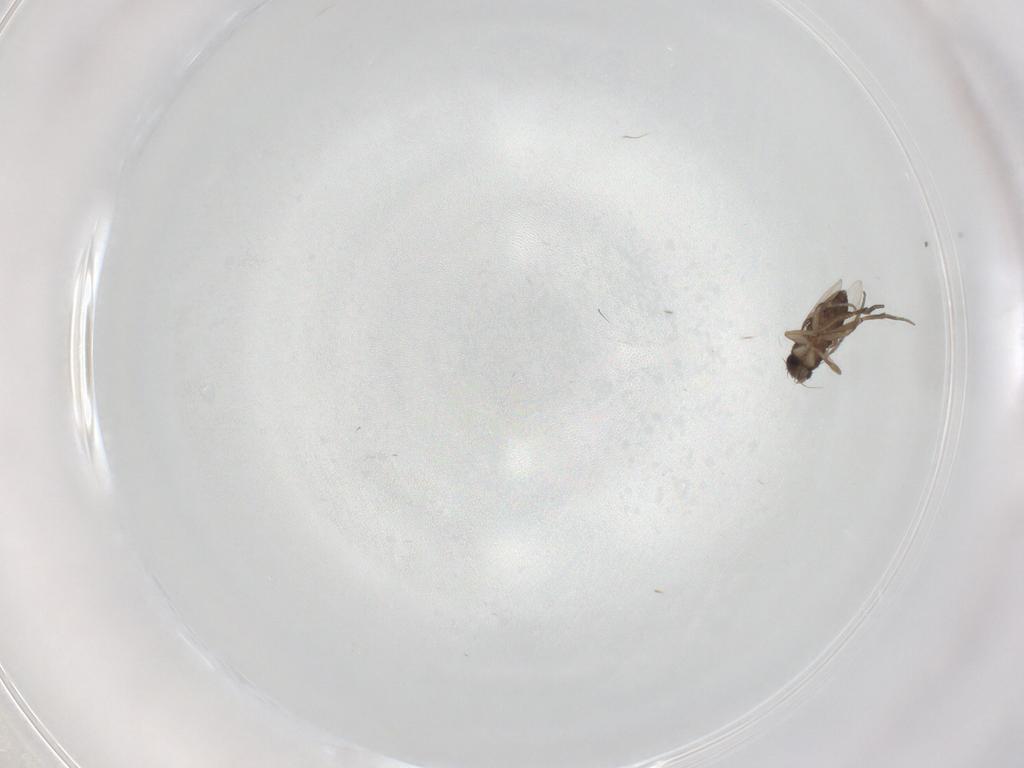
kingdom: Animalia
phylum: Arthropoda
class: Insecta
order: Diptera
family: Phoridae
